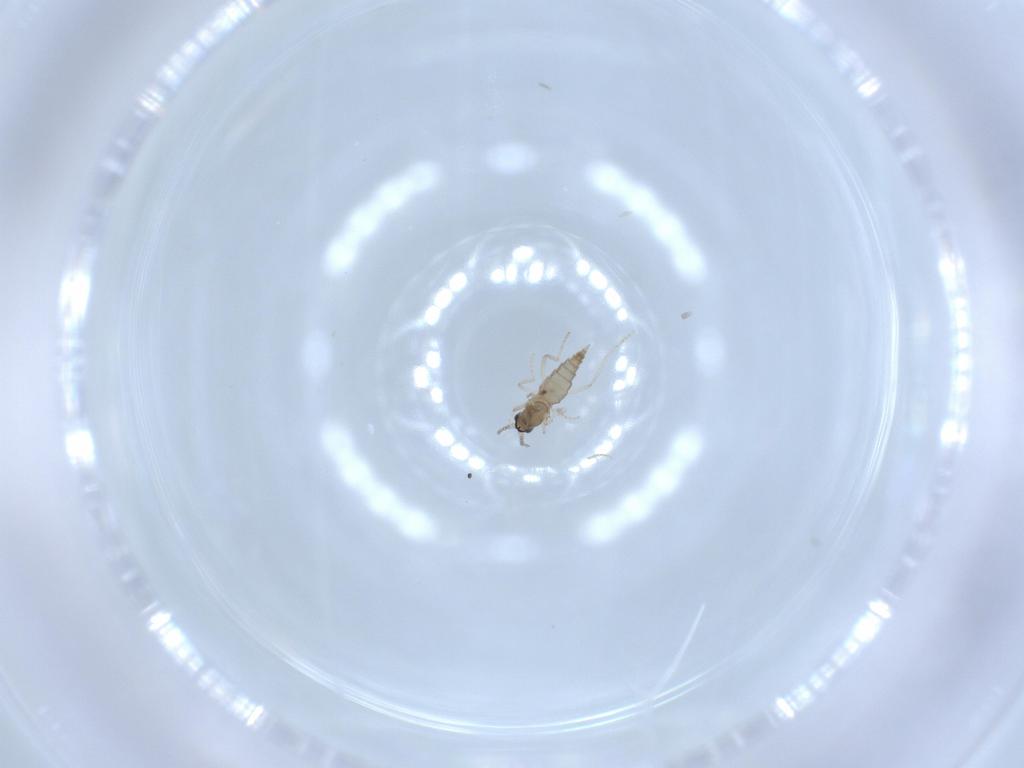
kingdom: Animalia
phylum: Arthropoda
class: Insecta
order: Diptera
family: Cecidomyiidae
